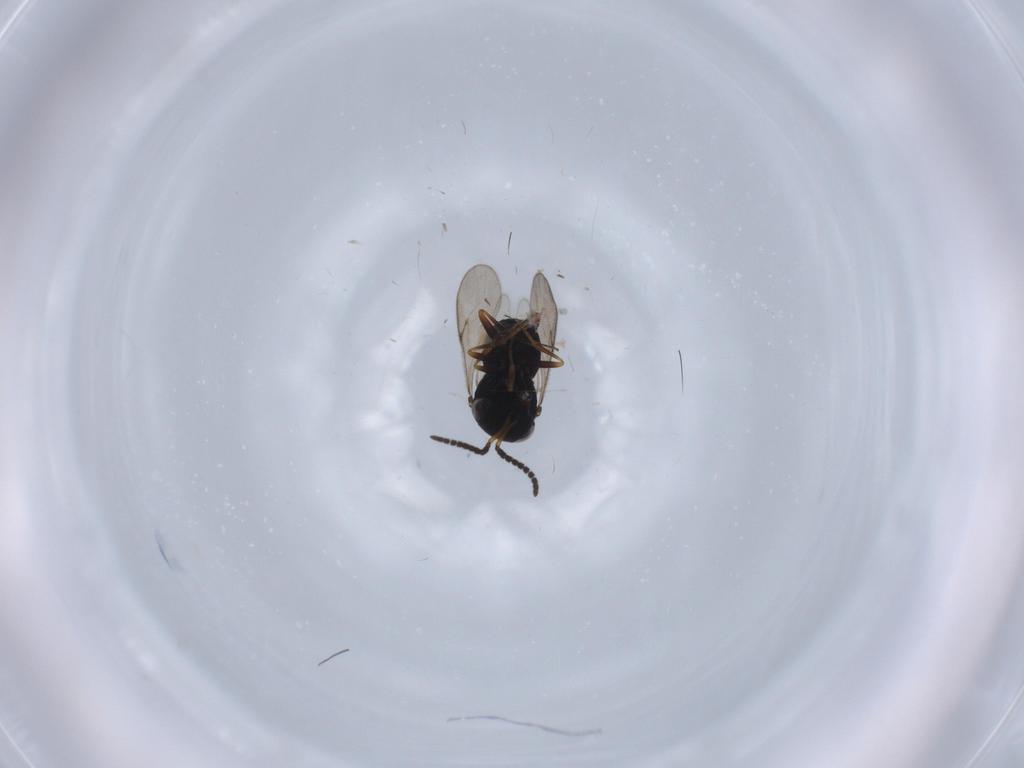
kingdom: Animalia
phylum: Arthropoda
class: Insecta
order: Hymenoptera
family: Scelionidae
